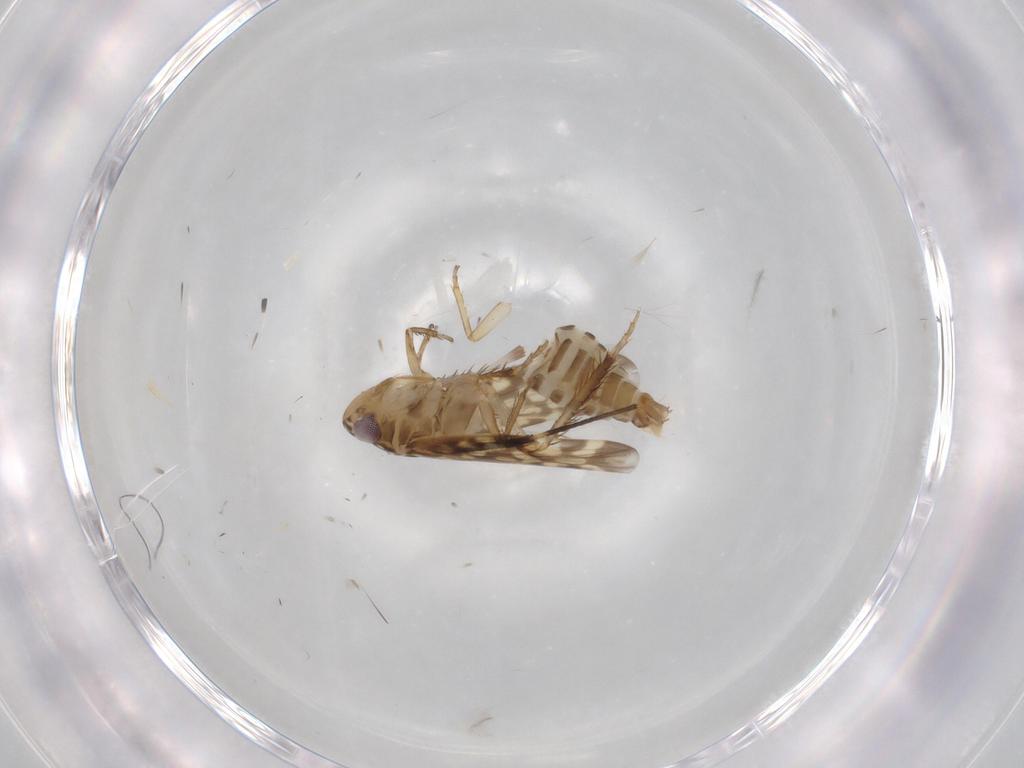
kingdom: Animalia
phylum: Arthropoda
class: Insecta
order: Hemiptera
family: Cicadellidae
